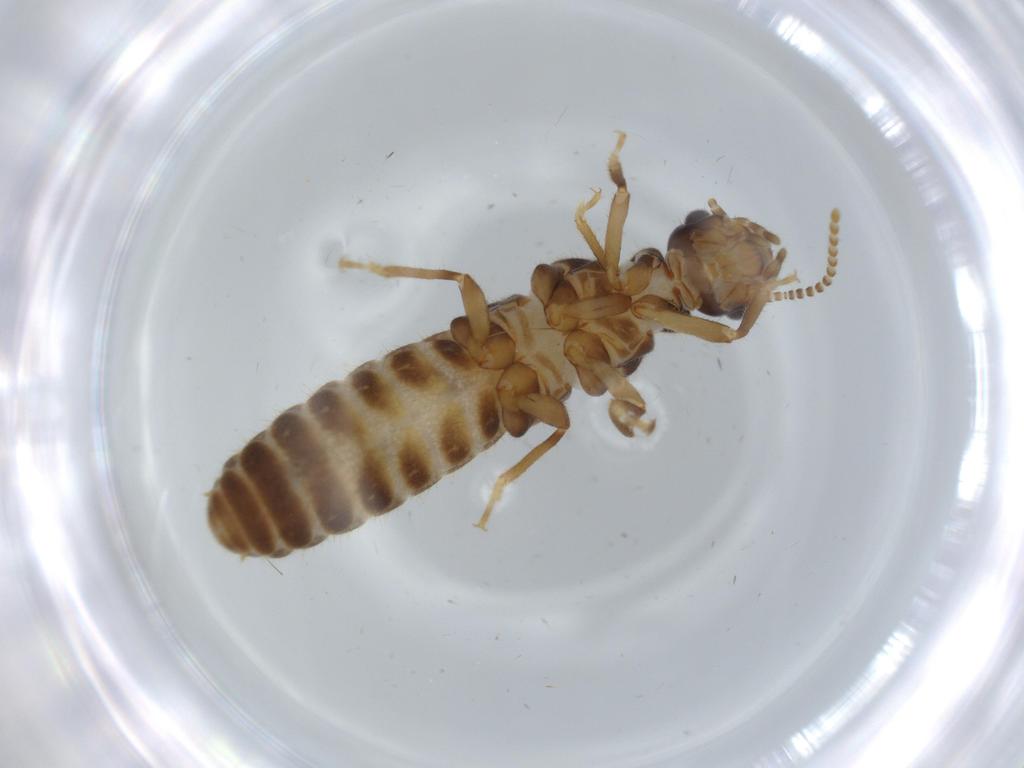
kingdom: Animalia
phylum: Arthropoda
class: Insecta
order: Blattodea
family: Termitidae
